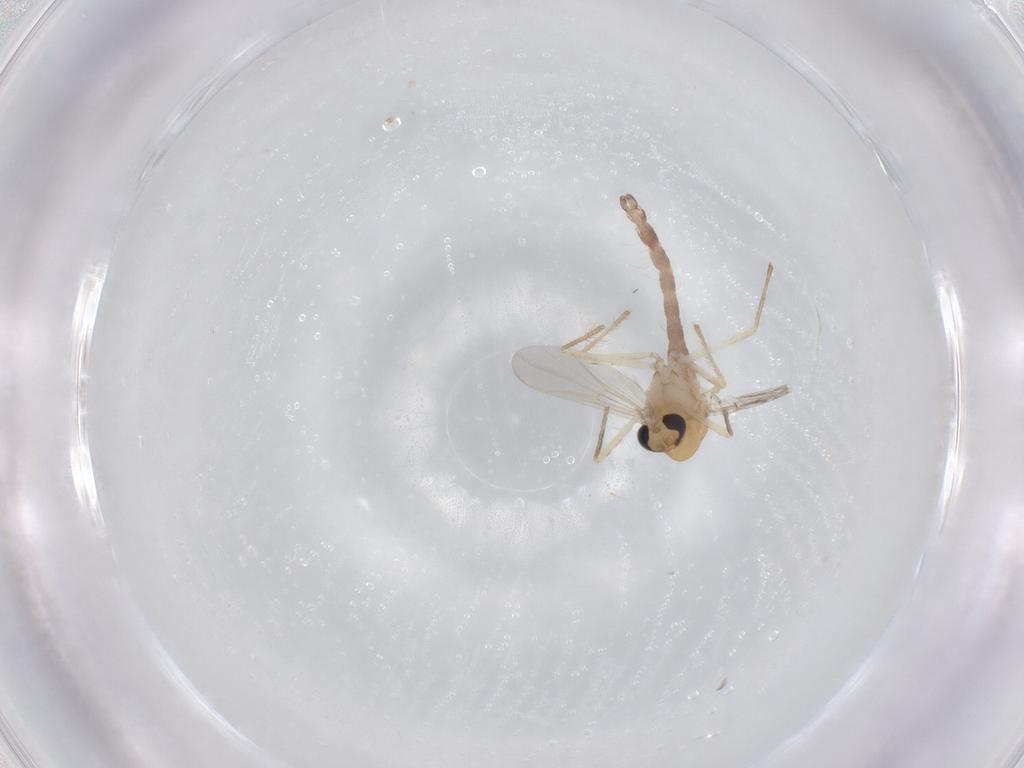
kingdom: Animalia
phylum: Arthropoda
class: Insecta
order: Diptera
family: Chironomidae
